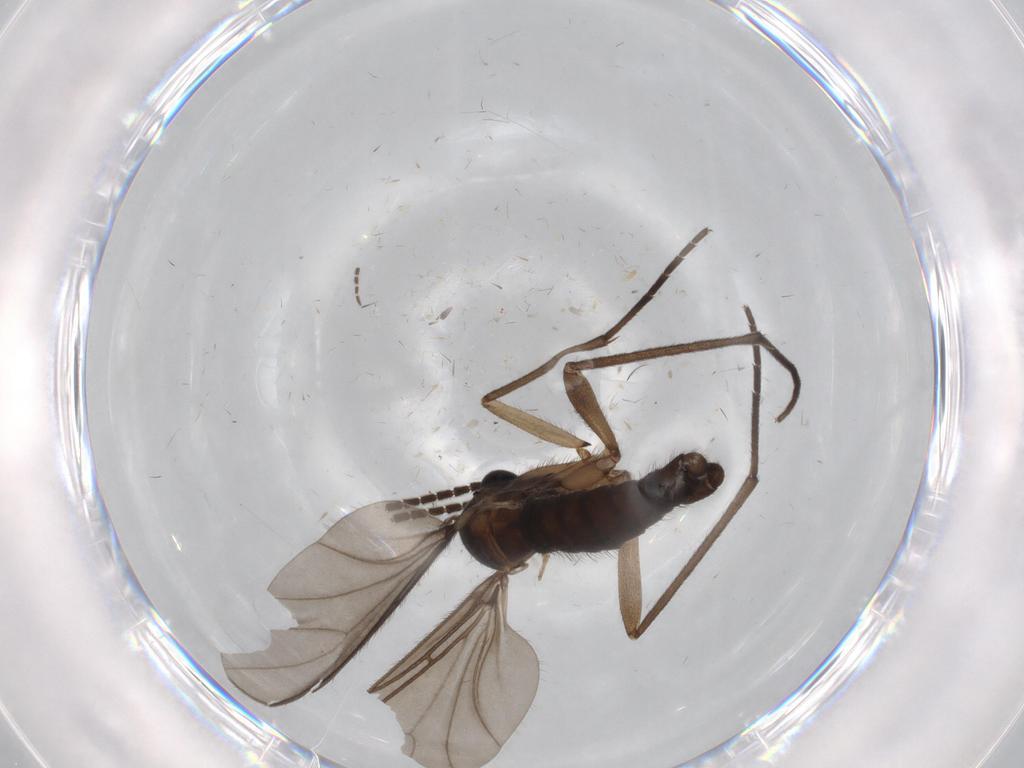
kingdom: Animalia
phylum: Arthropoda
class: Insecta
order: Diptera
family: Sciaridae
